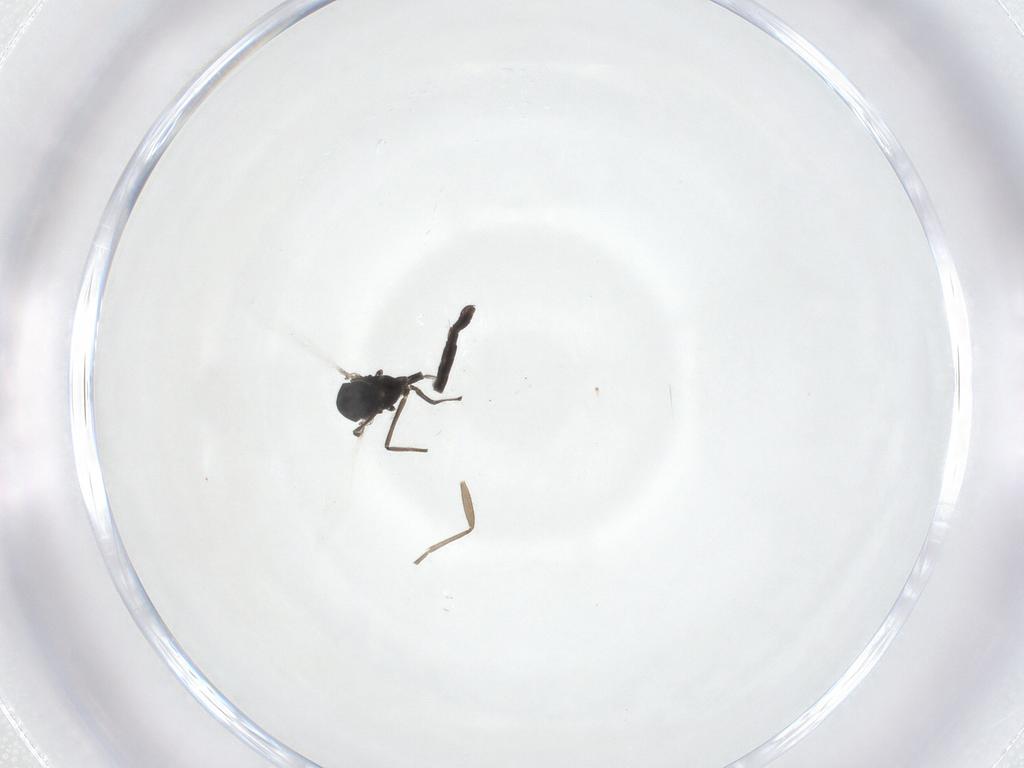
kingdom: Animalia
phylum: Arthropoda
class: Insecta
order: Diptera
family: Chironomidae
